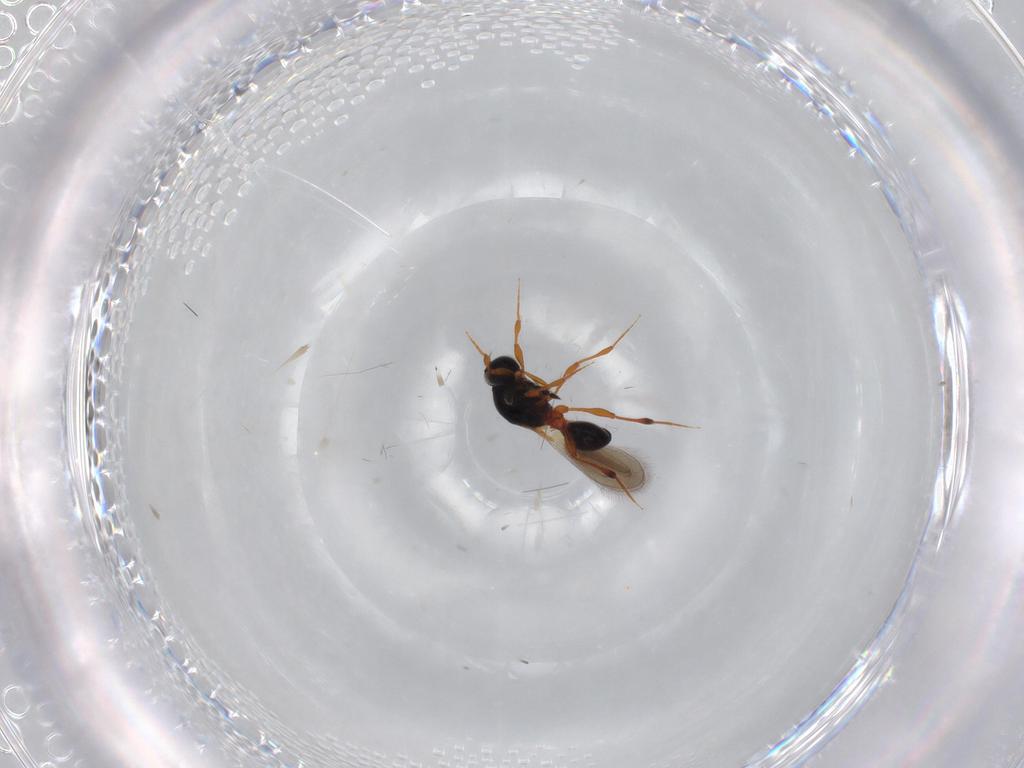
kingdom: Animalia
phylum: Arthropoda
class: Insecta
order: Hymenoptera
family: Platygastridae
